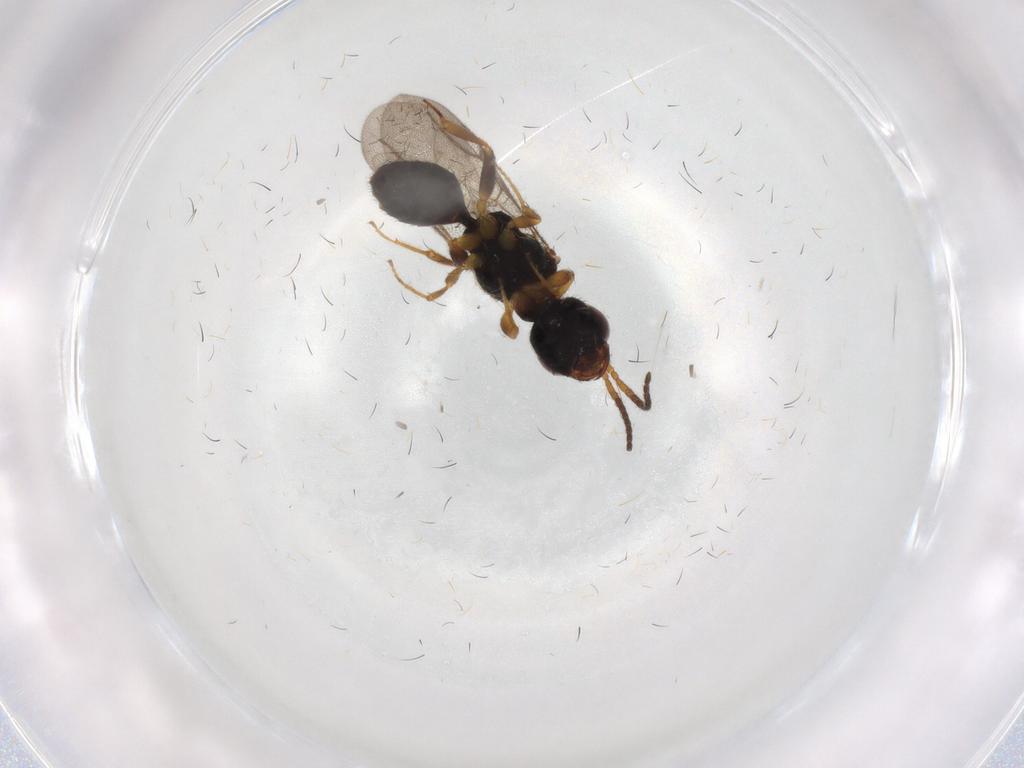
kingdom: Animalia
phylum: Arthropoda
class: Insecta
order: Hymenoptera
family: Bethylidae
